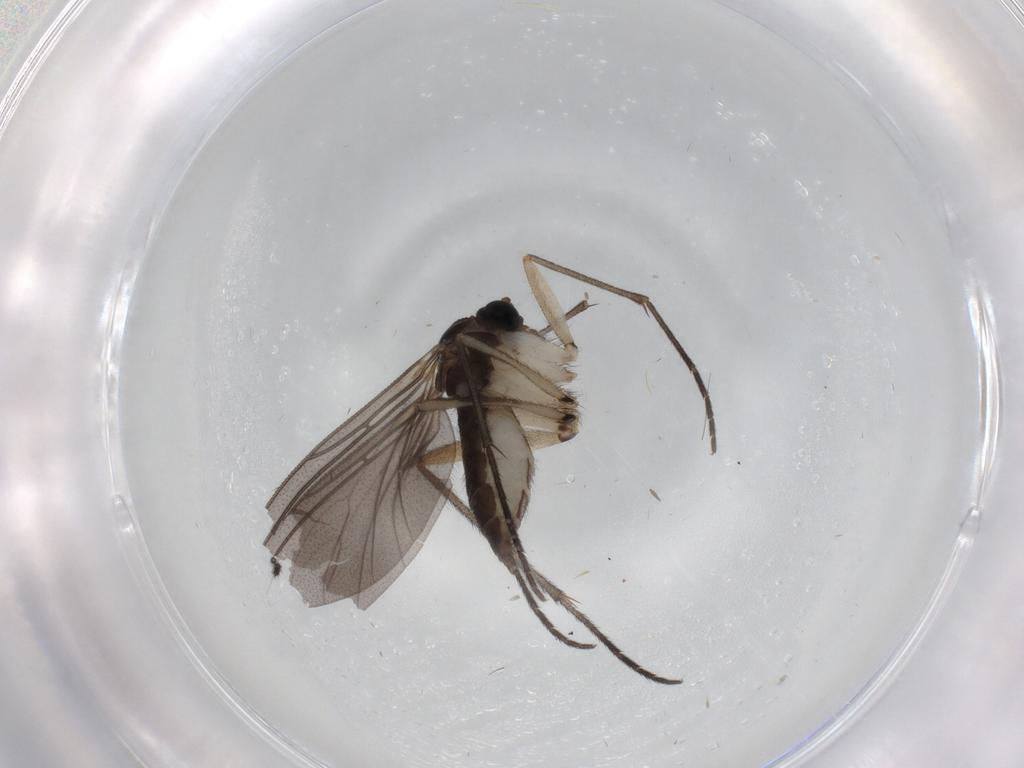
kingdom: Animalia
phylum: Arthropoda
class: Insecta
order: Diptera
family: Sciaridae
